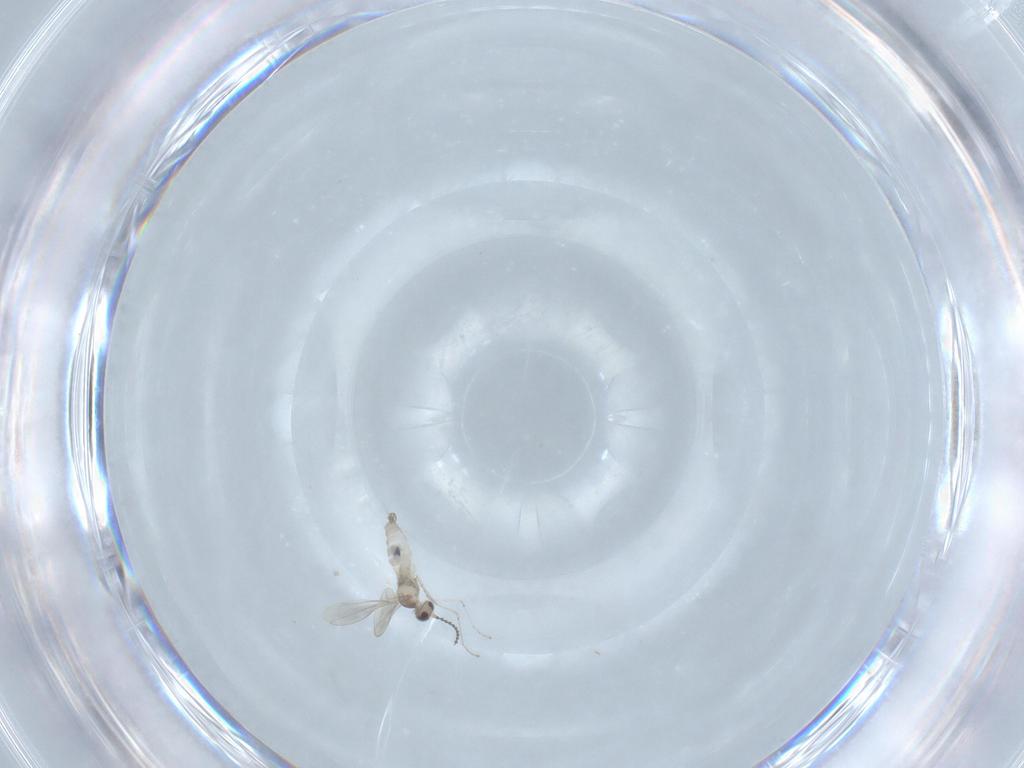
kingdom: Animalia
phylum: Arthropoda
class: Insecta
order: Diptera
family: Cecidomyiidae
